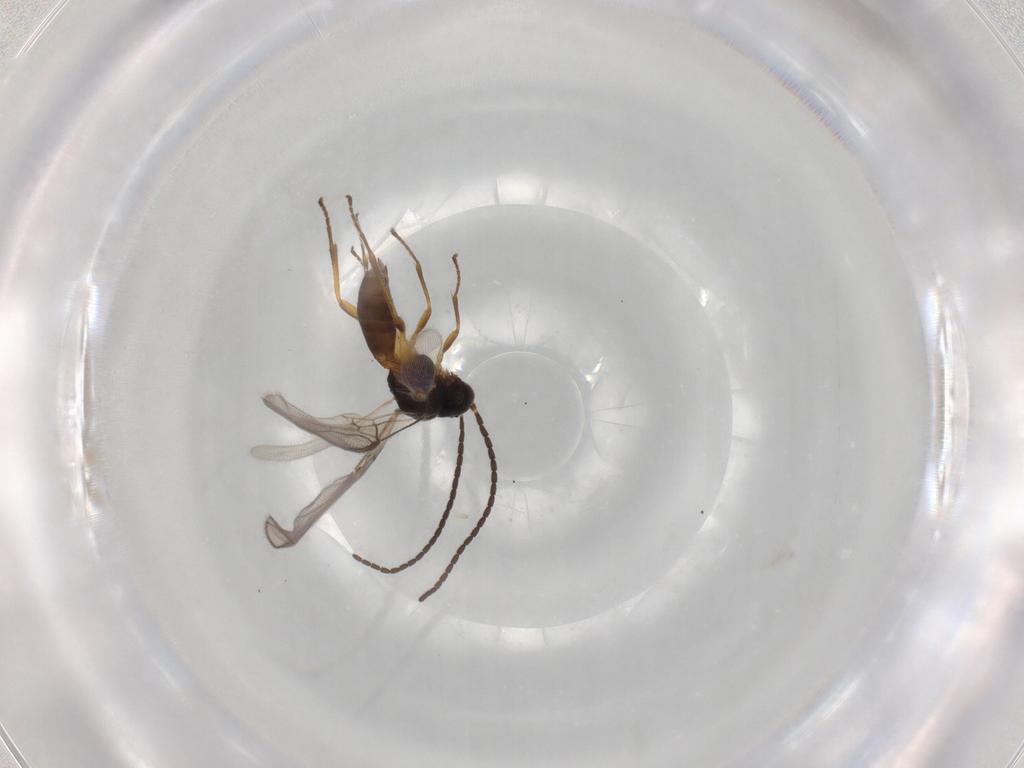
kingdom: Animalia
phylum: Arthropoda
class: Insecta
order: Hymenoptera
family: Braconidae
